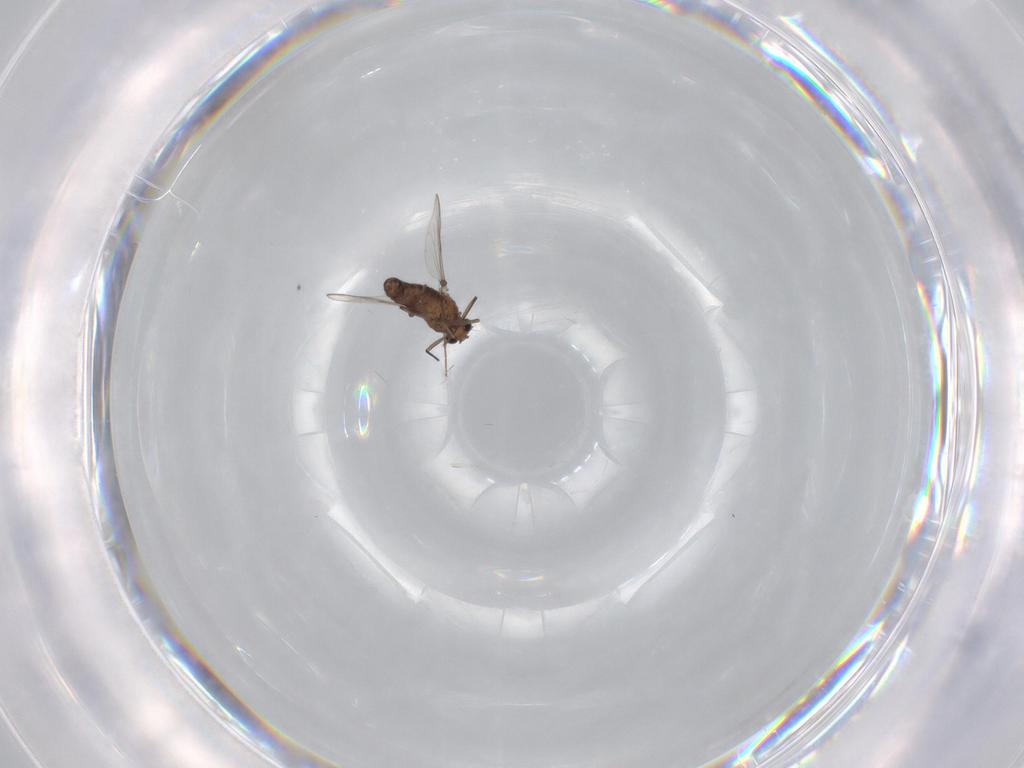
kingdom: Animalia
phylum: Arthropoda
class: Insecta
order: Diptera
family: Chironomidae
